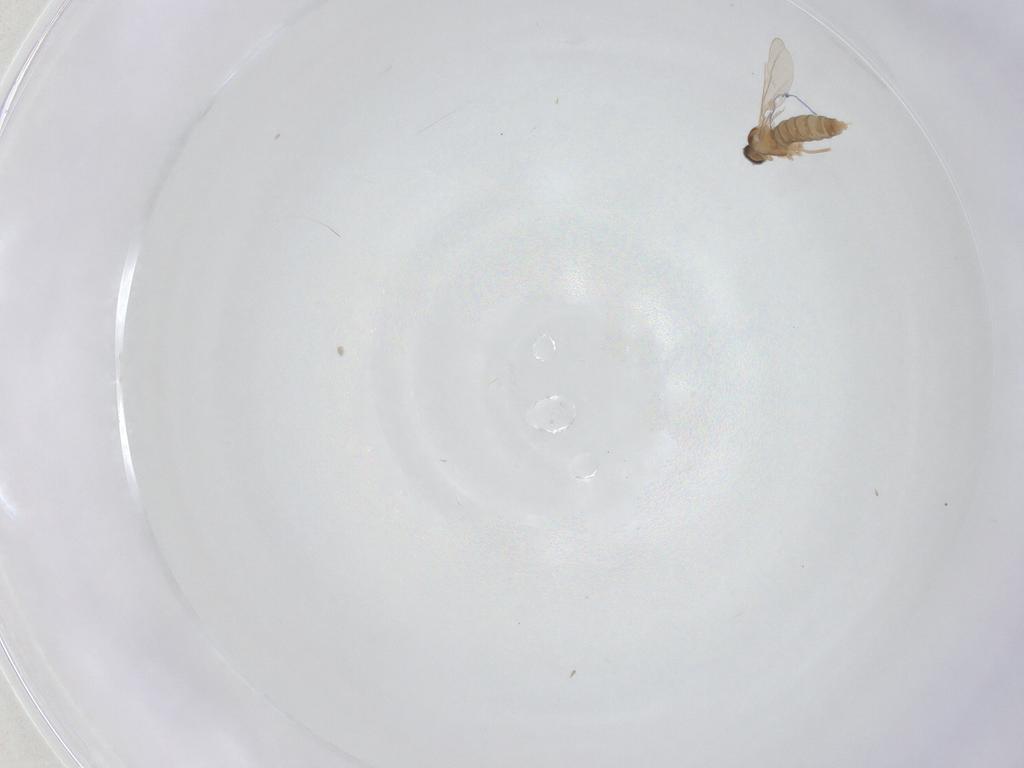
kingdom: Animalia
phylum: Arthropoda
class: Insecta
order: Diptera
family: Cecidomyiidae
